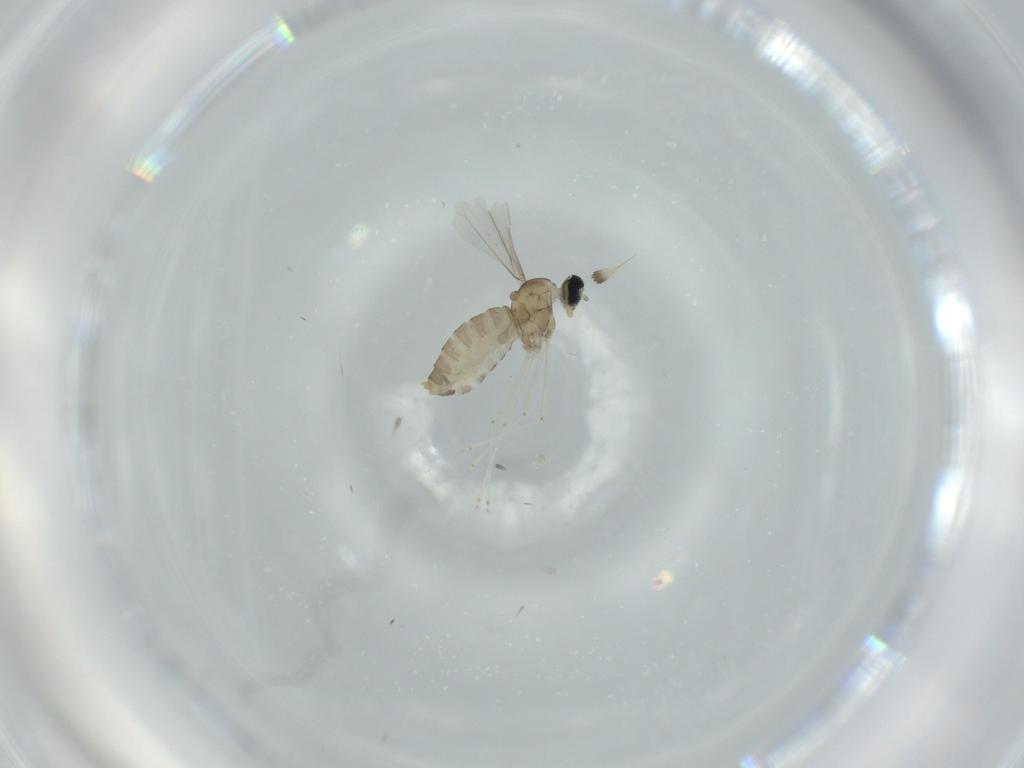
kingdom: Animalia
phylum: Arthropoda
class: Insecta
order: Diptera
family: Cecidomyiidae
